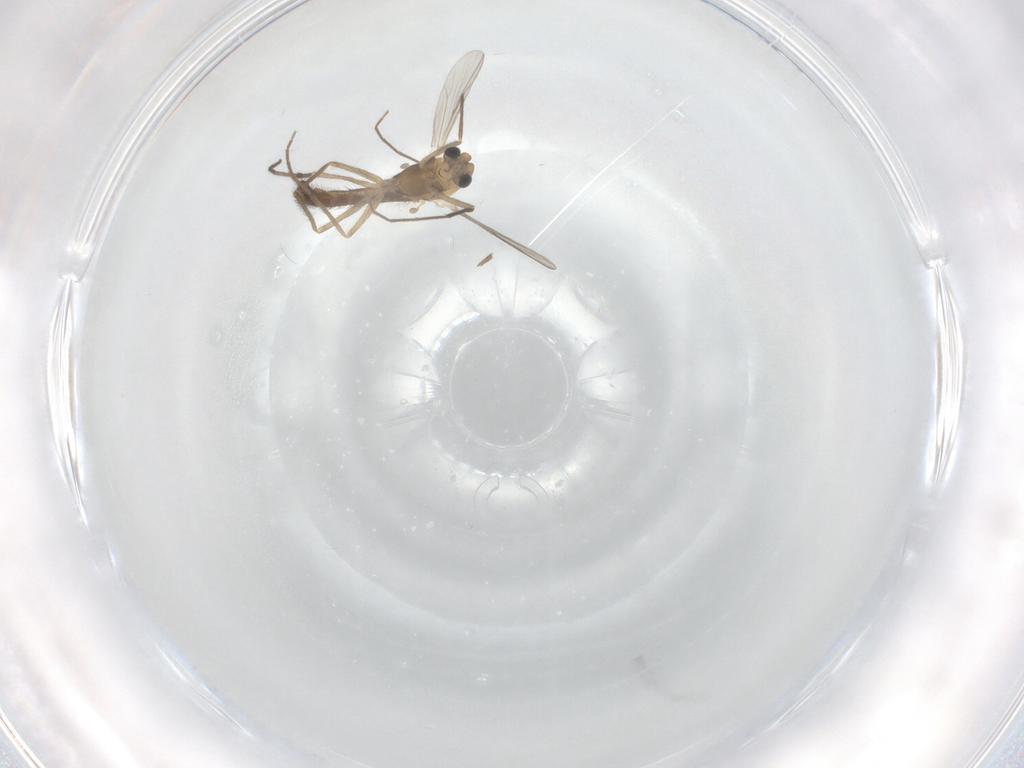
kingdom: Animalia
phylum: Arthropoda
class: Insecta
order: Diptera
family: Chironomidae
